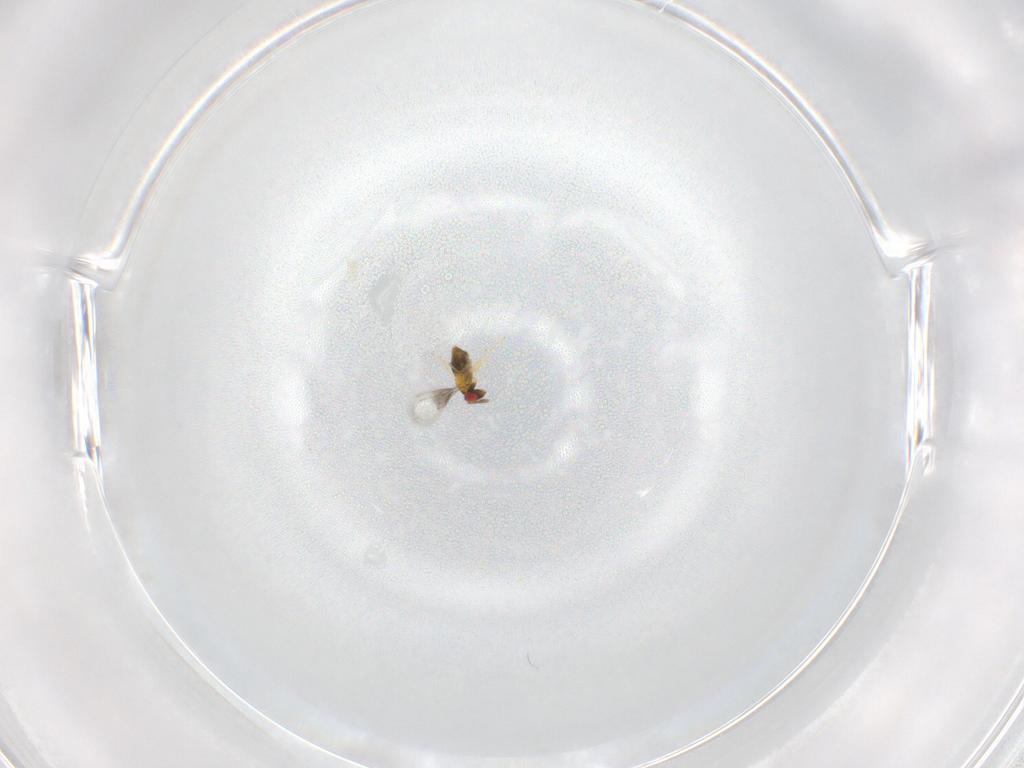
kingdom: Animalia
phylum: Arthropoda
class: Insecta
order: Hymenoptera
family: Trichogrammatidae
